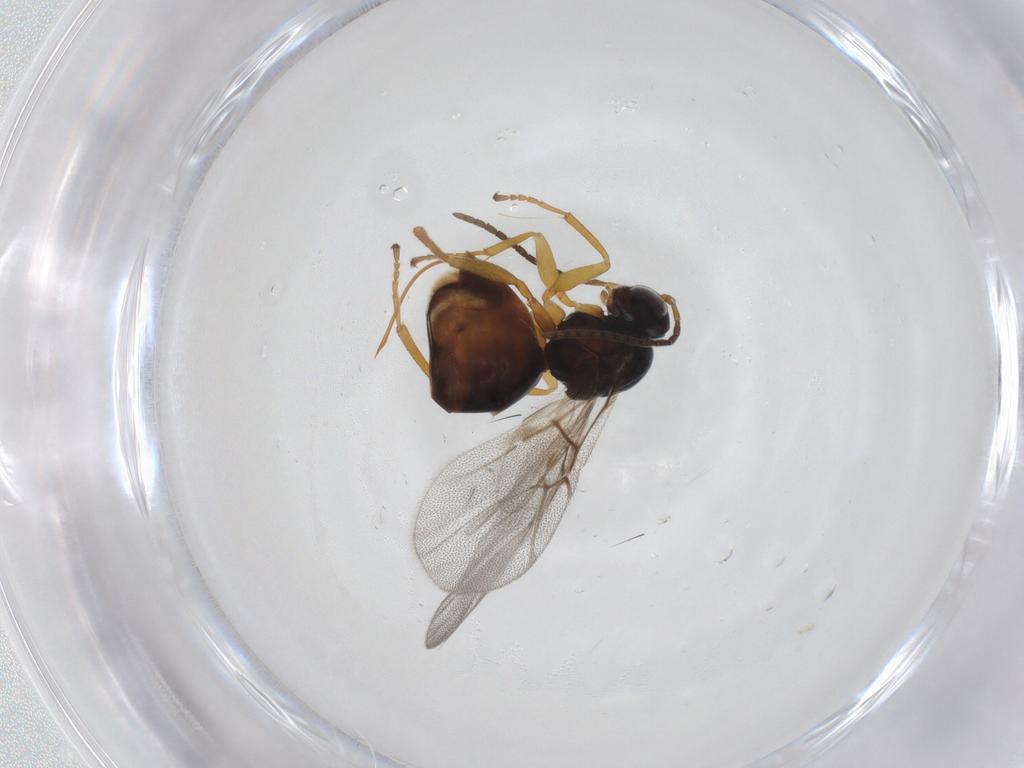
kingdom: Animalia
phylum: Arthropoda
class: Insecta
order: Hymenoptera
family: Cynipidae
